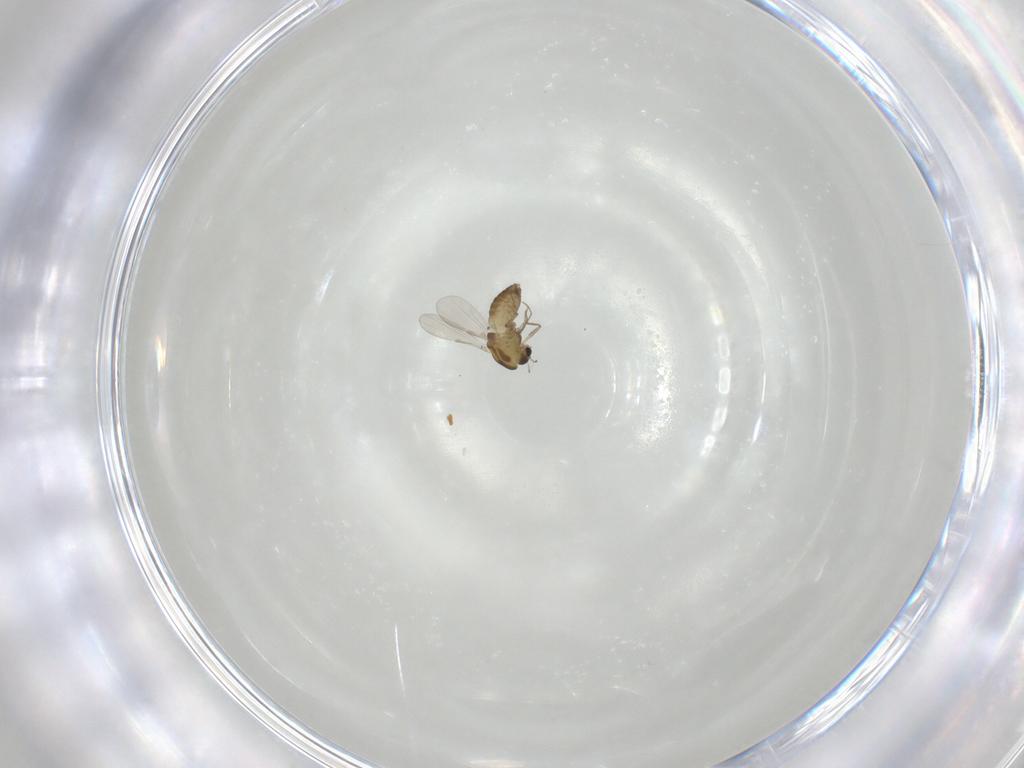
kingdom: Animalia
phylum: Arthropoda
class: Insecta
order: Diptera
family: Chironomidae
